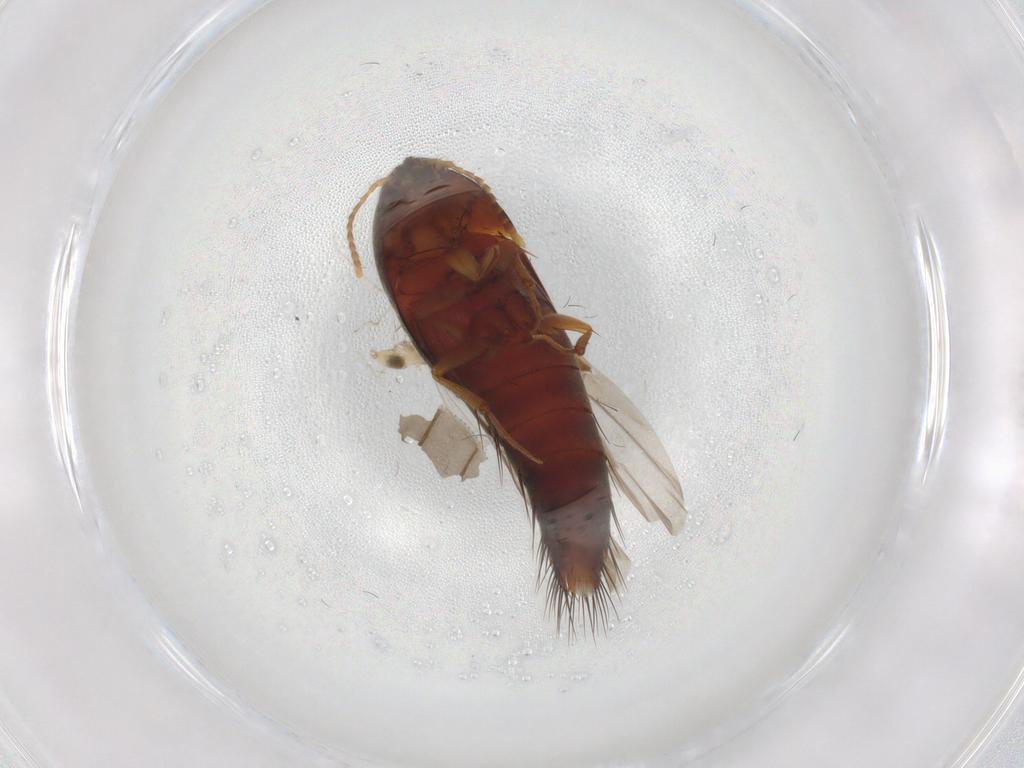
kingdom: Animalia
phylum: Arthropoda
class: Insecta
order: Coleoptera
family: Staphylinidae
